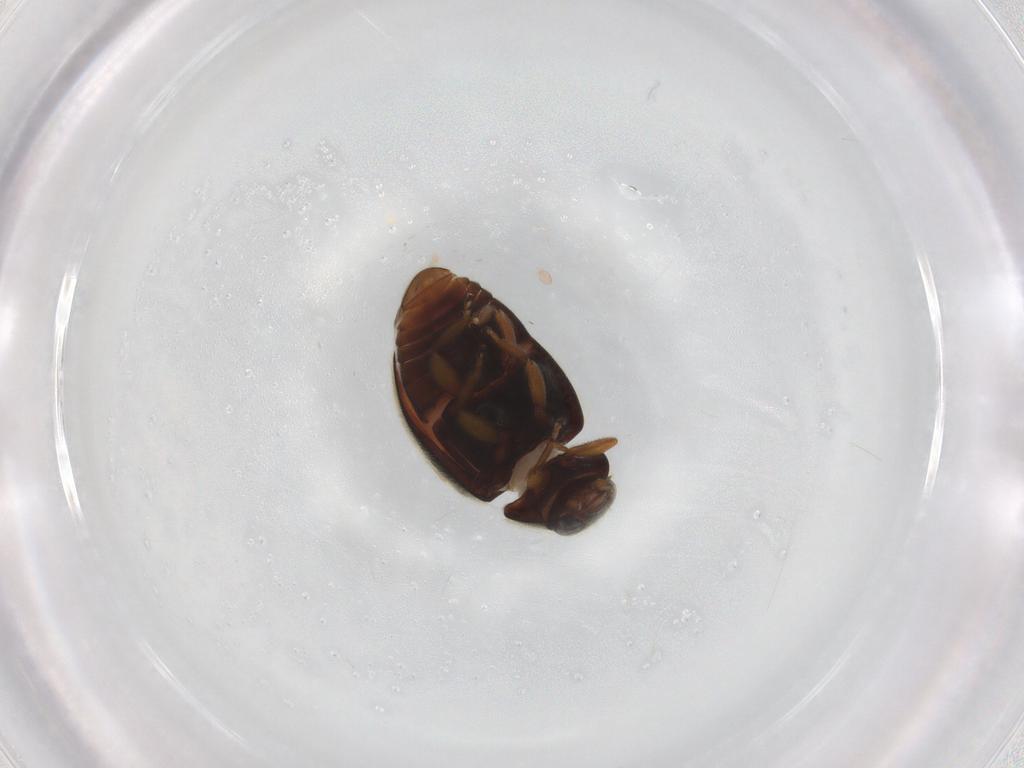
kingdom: Animalia
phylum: Arthropoda
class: Insecta
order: Coleoptera
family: Coccinellidae
